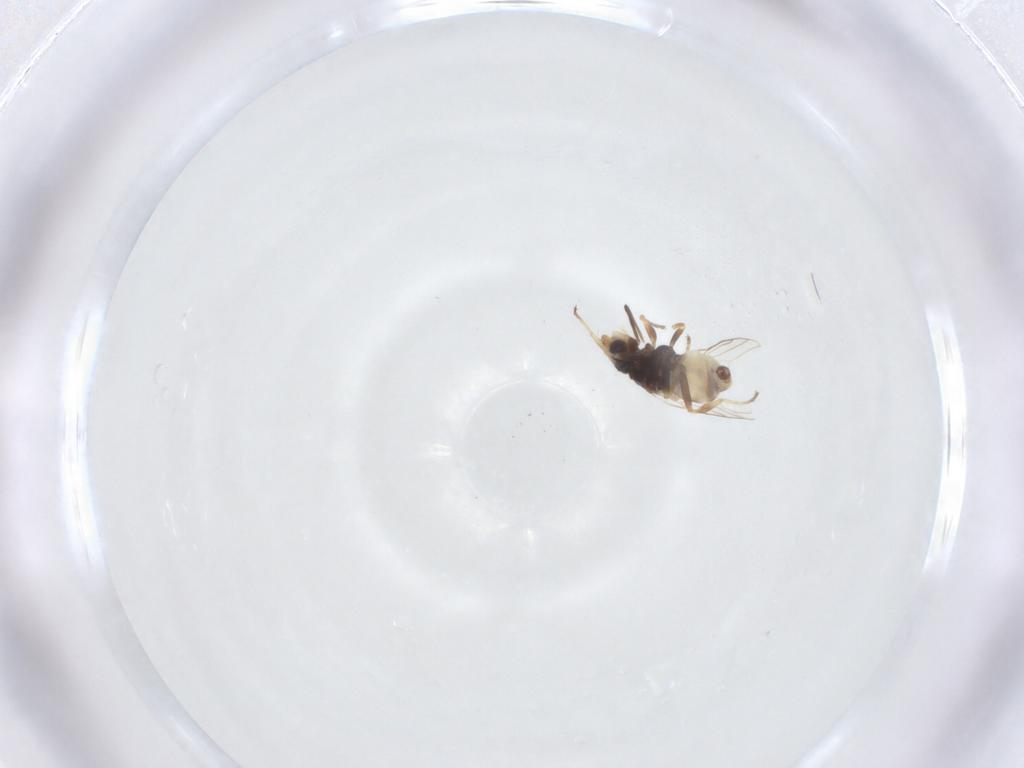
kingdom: Animalia
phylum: Arthropoda
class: Insecta
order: Diptera
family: Chloropidae
